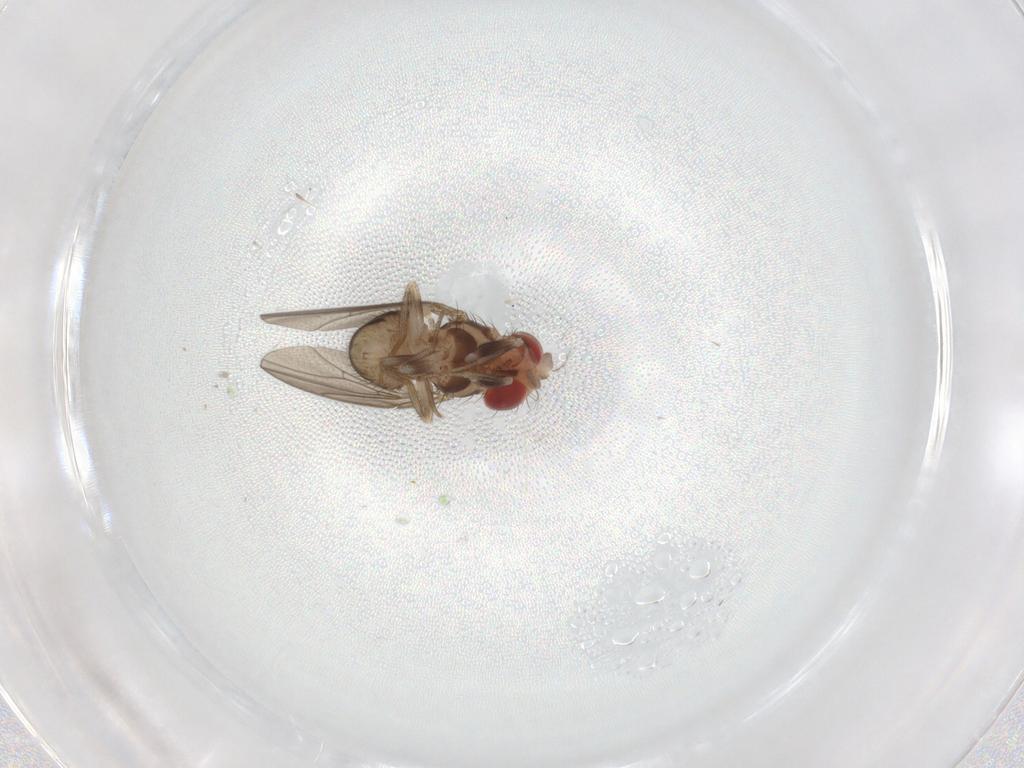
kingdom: Animalia
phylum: Arthropoda
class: Insecta
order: Diptera
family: Drosophilidae
